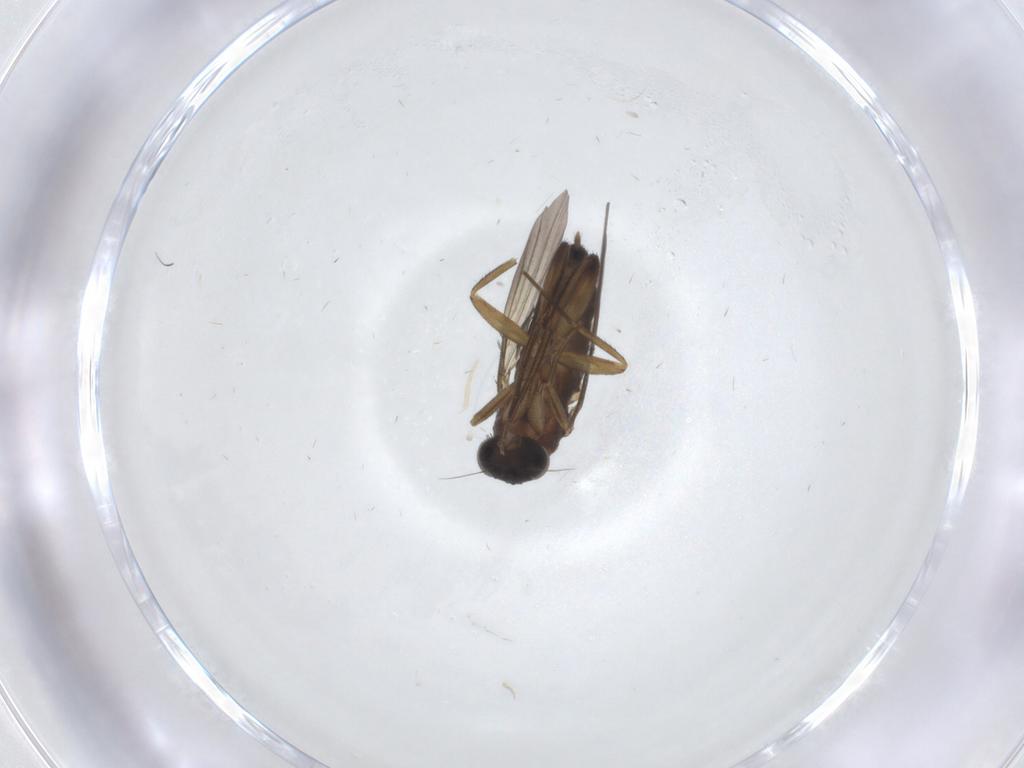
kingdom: Animalia
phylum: Arthropoda
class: Insecta
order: Diptera
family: Phoridae
